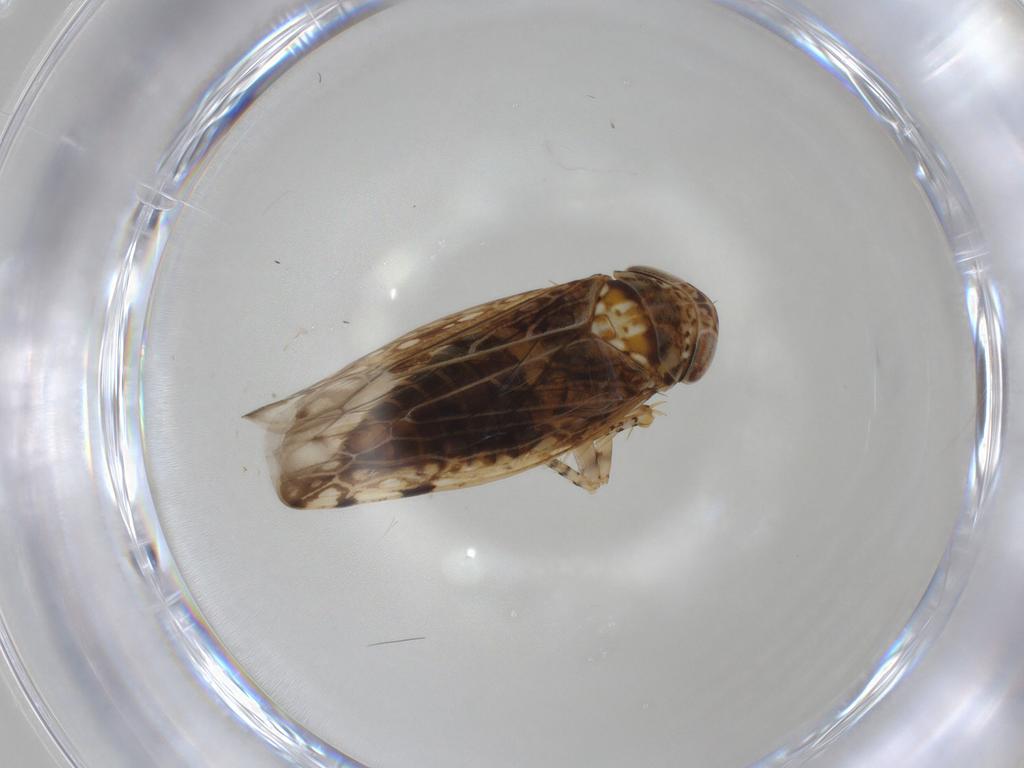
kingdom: Animalia
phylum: Arthropoda
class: Insecta
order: Hemiptera
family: Cicadellidae
